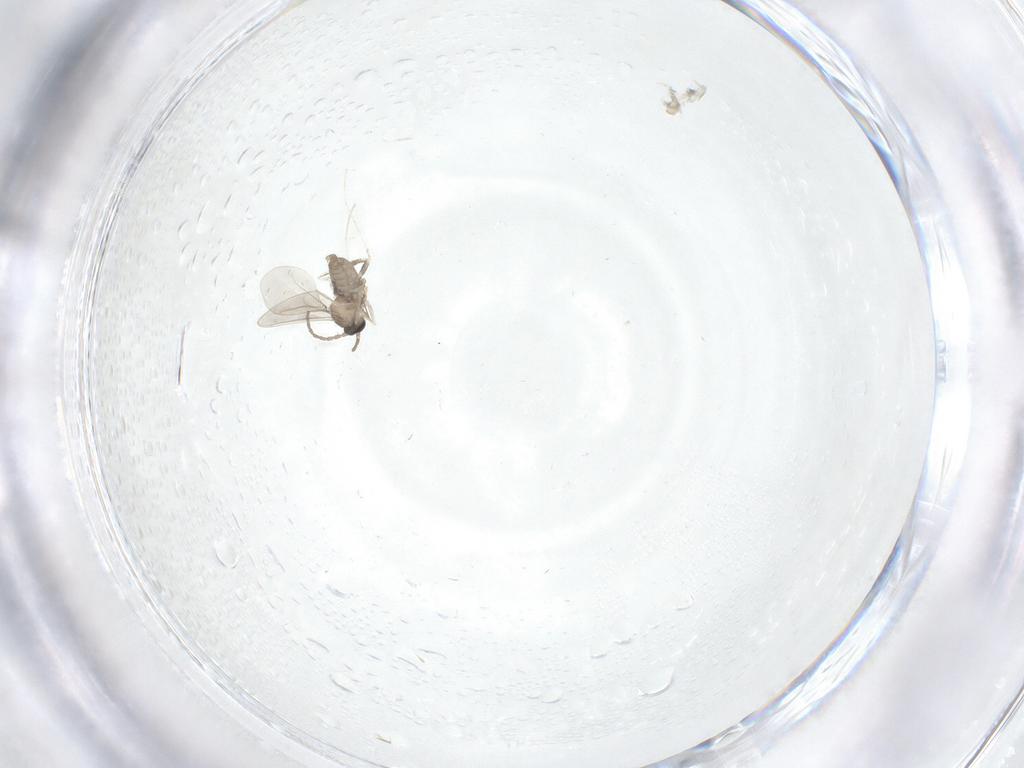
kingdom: Animalia
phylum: Arthropoda
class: Insecta
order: Diptera
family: Cecidomyiidae
